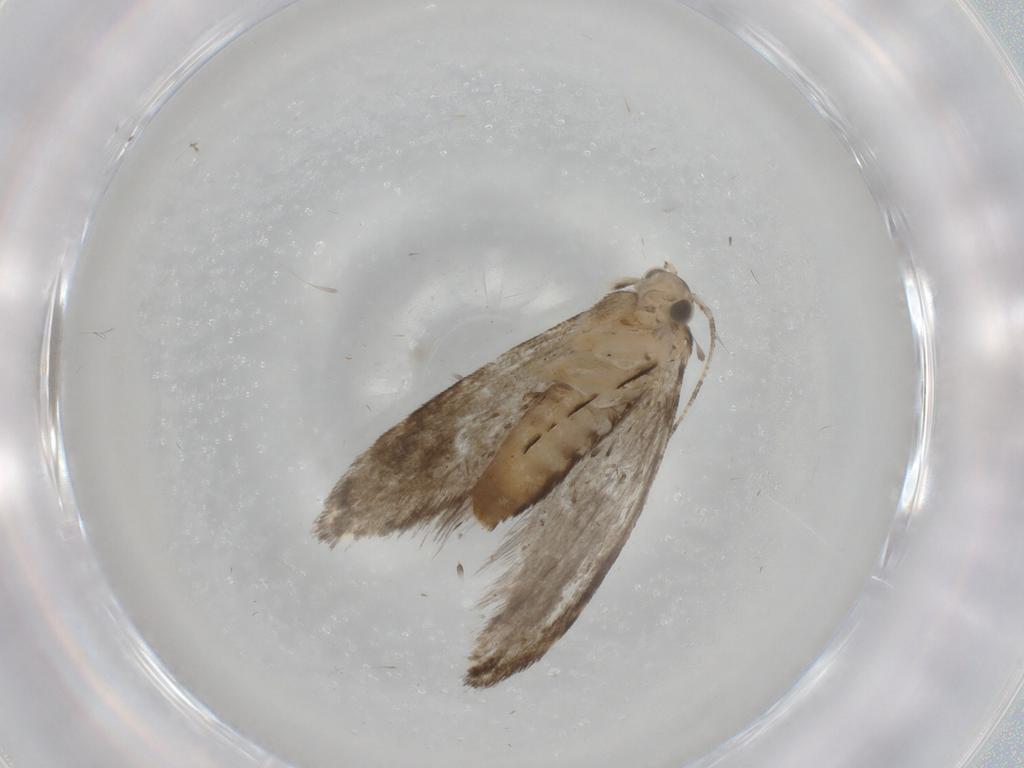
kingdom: Animalia
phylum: Arthropoda
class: Insecta
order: Lepidoptera
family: Tineidae
